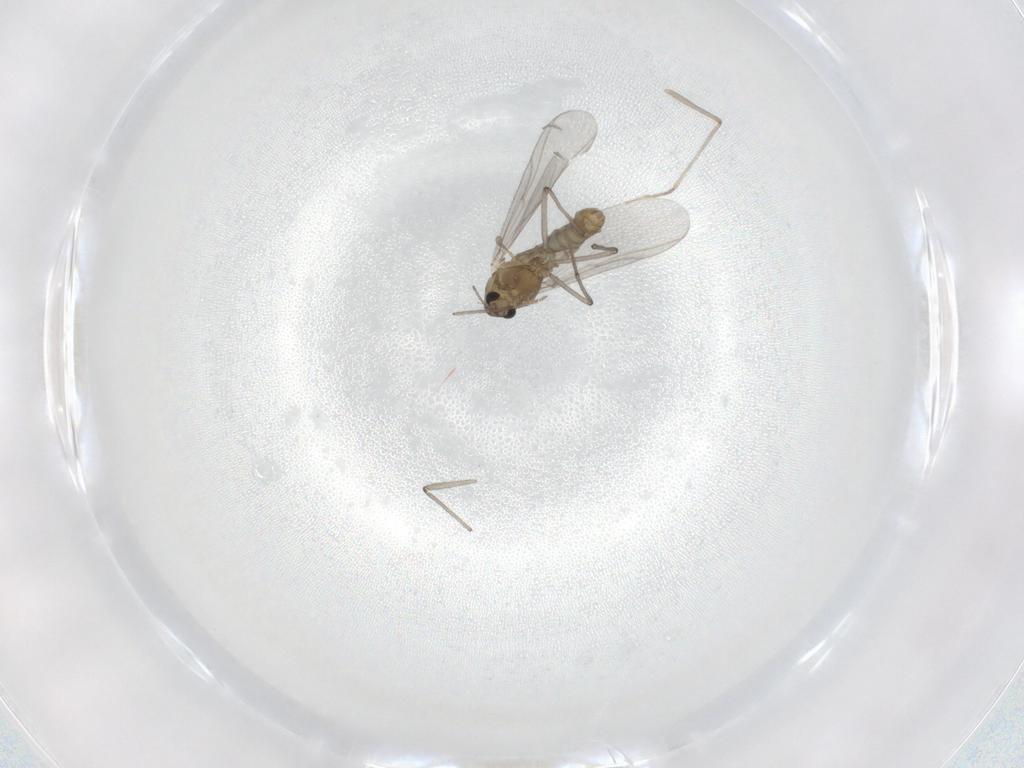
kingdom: Animalia
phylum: Arthropoda
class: Insecta
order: Diptera
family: Chironomidae
